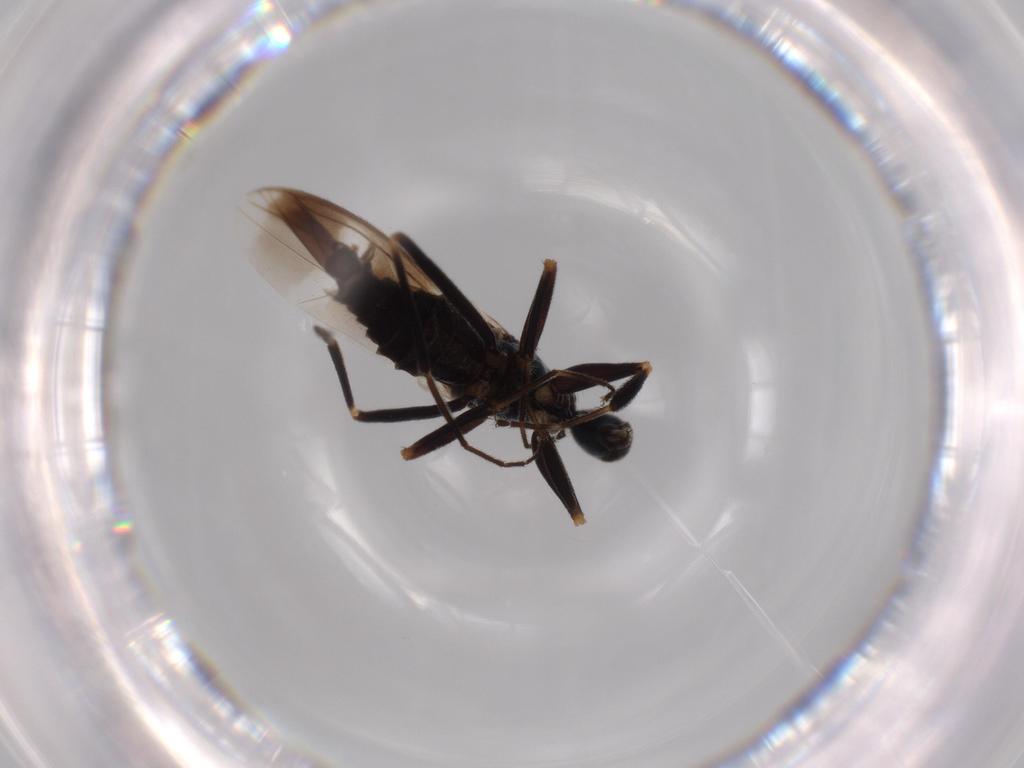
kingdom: Animalia
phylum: Arthropoda
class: Insecta
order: Diptera
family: Hybotidae
